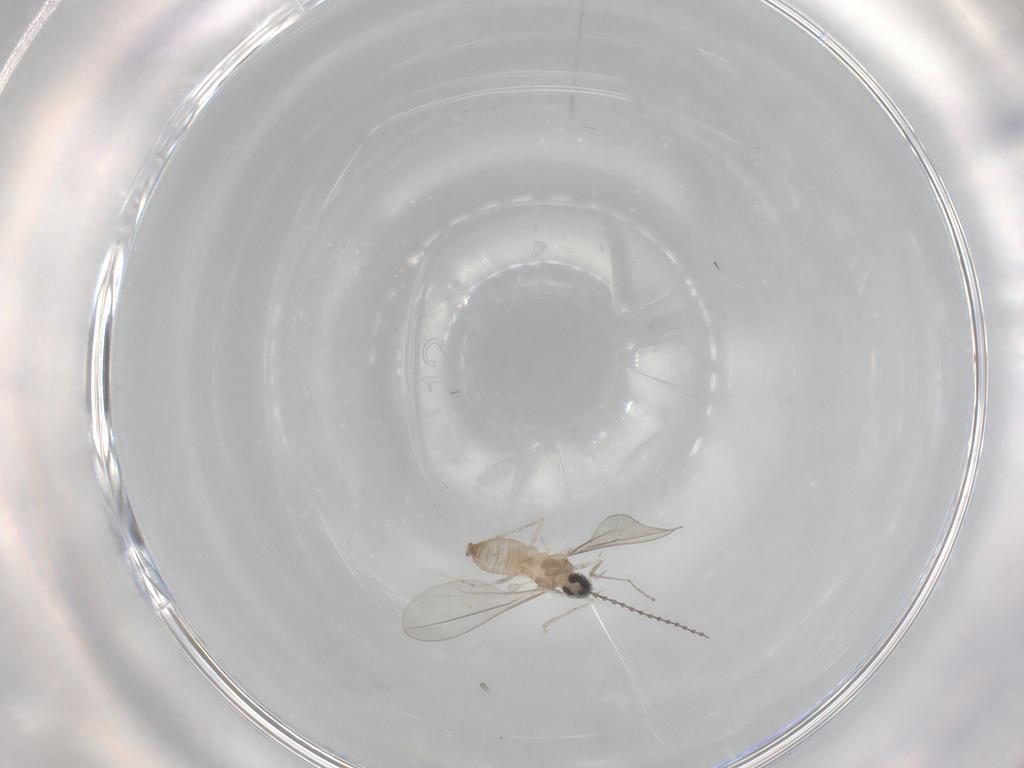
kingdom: Animalia
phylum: Arthropoda
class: Insecta
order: Diptera
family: Cecidomyiidae
